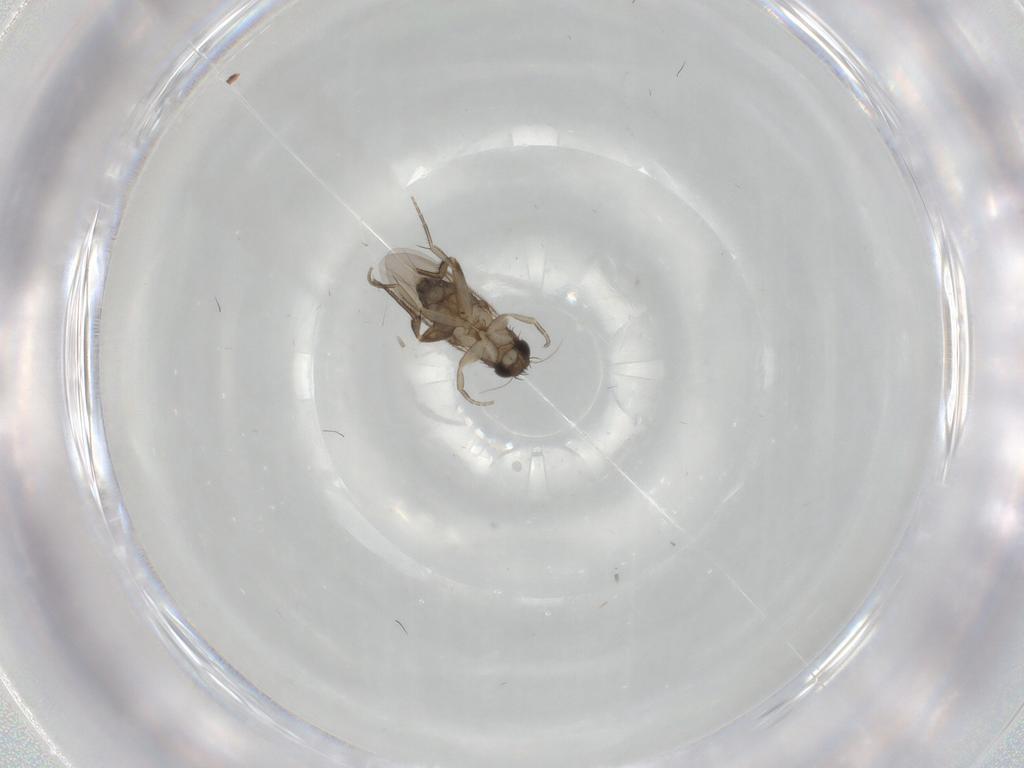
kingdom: Animalia
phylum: Arthropoda
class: Insecta
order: Diptera
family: Phoridae
